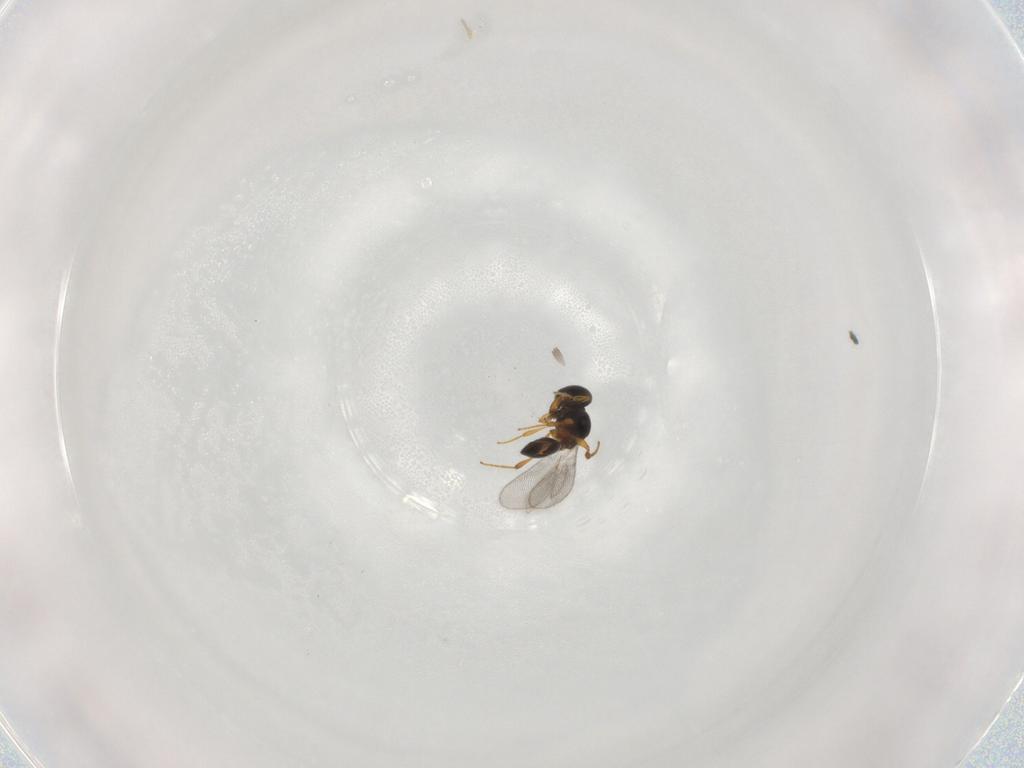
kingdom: Animalia
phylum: Arthropoda
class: Insecta
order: Hymenoptera
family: Platygastridae
